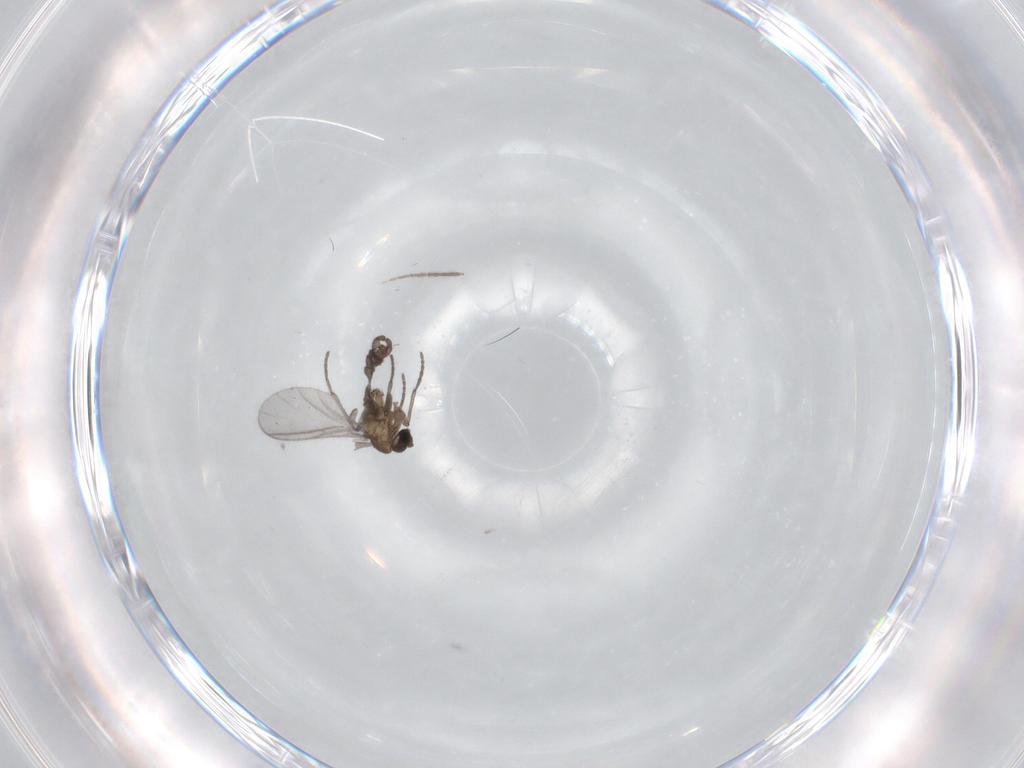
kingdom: Animalia
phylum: Arthropoda
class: Insecta
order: Diptera
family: Sciaridae
